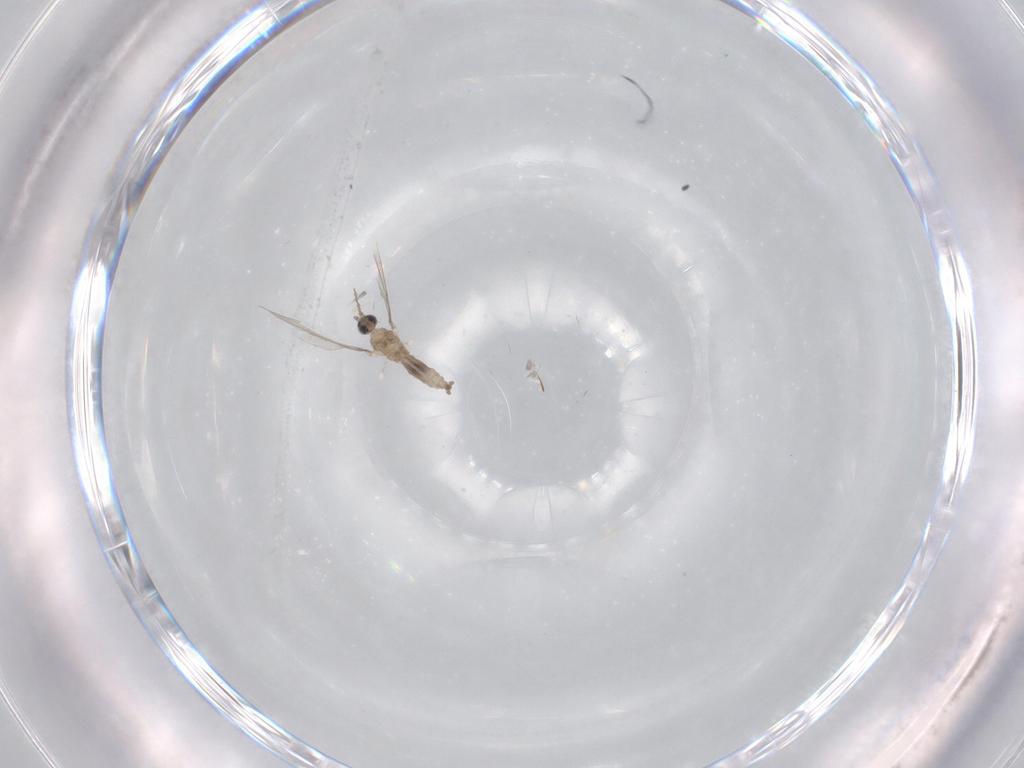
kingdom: Animalia
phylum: Arthropoda
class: Insecta
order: Diptera
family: Cecidomyiidae
